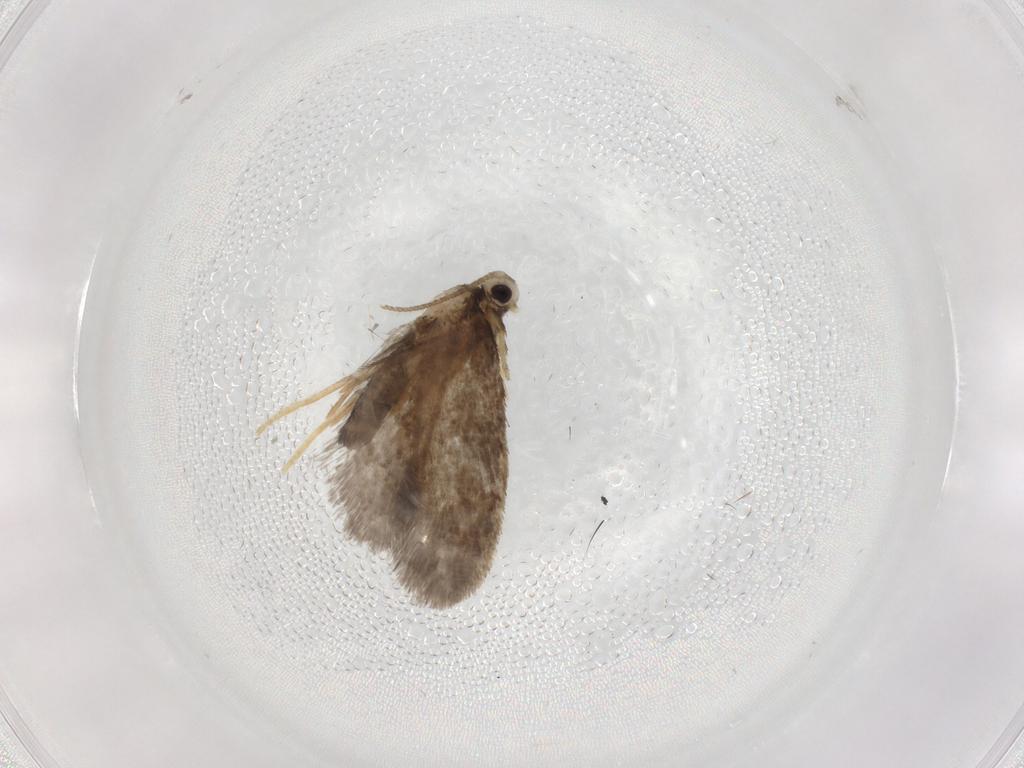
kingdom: Animalia
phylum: Arthropoda
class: Insecta
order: Lepidoptera
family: Psychidae
